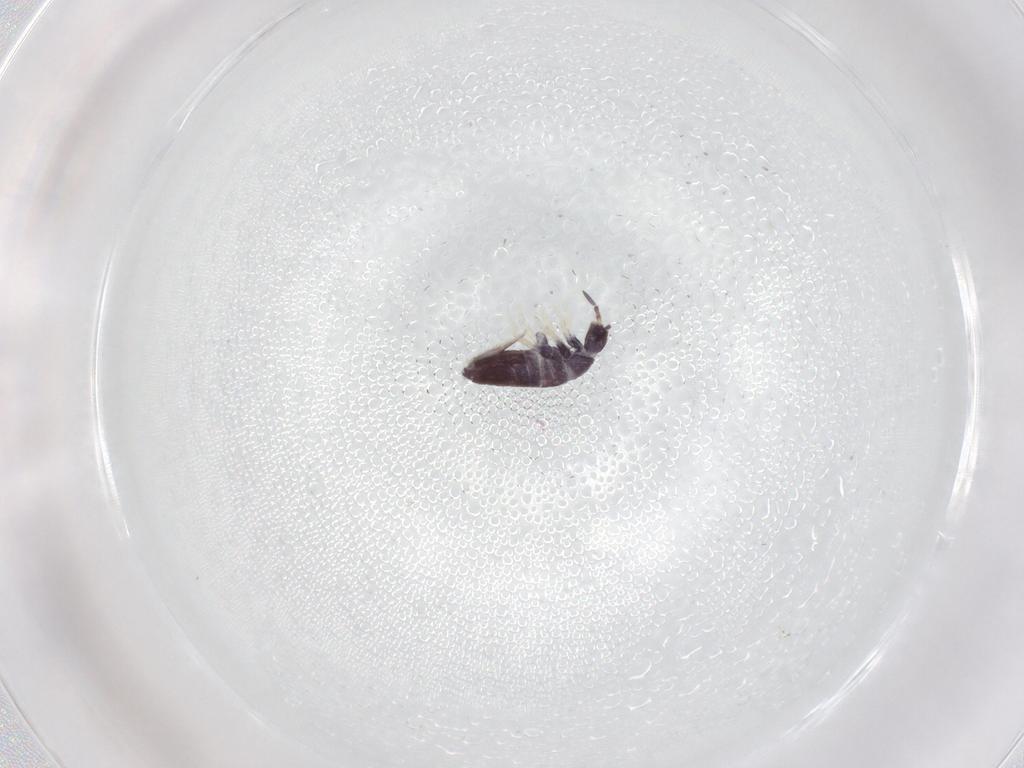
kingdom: Animalia
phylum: Arthropoda
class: Collembola
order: Entomobryomorpha
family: Entomobryidae
